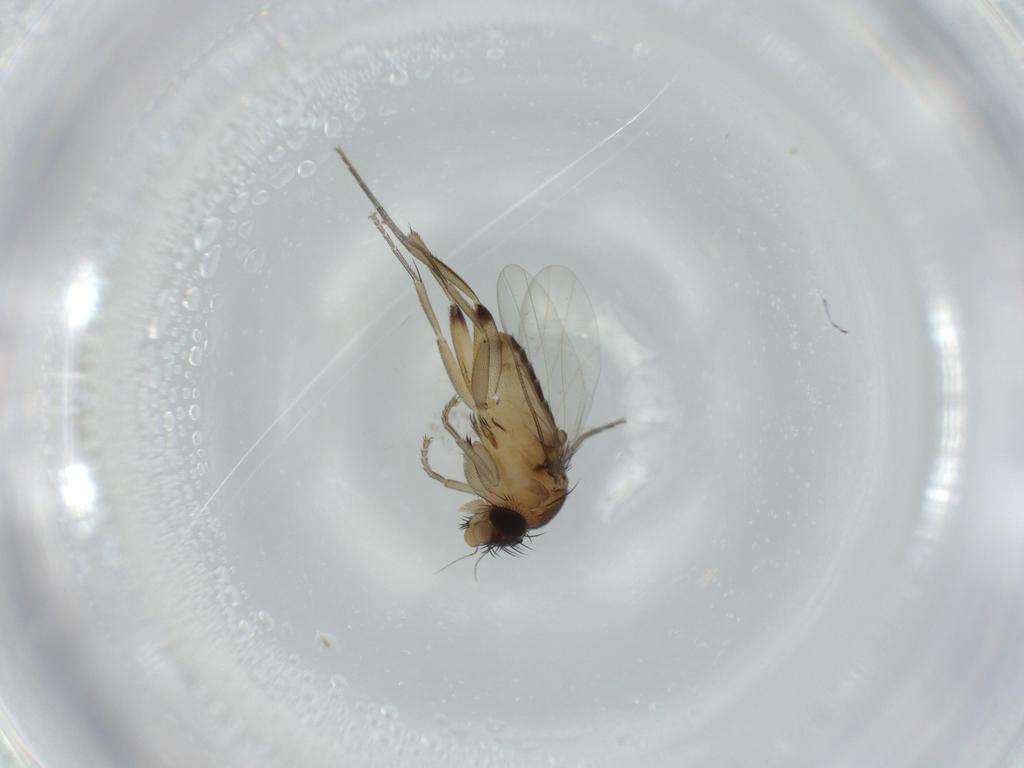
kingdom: Animalia
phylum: Arthropoda
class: Insecta
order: Diptera
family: Phoridae
